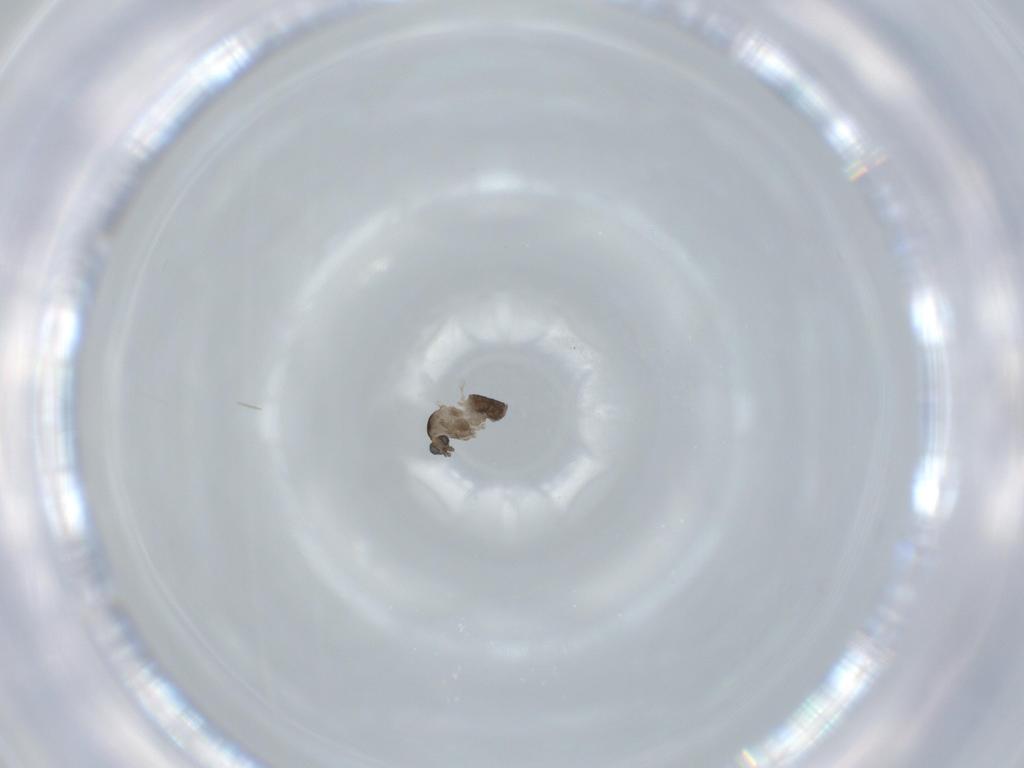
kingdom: Animalia
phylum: Arthropoda
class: Insecta
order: Diptera
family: Cecidomyiidae
